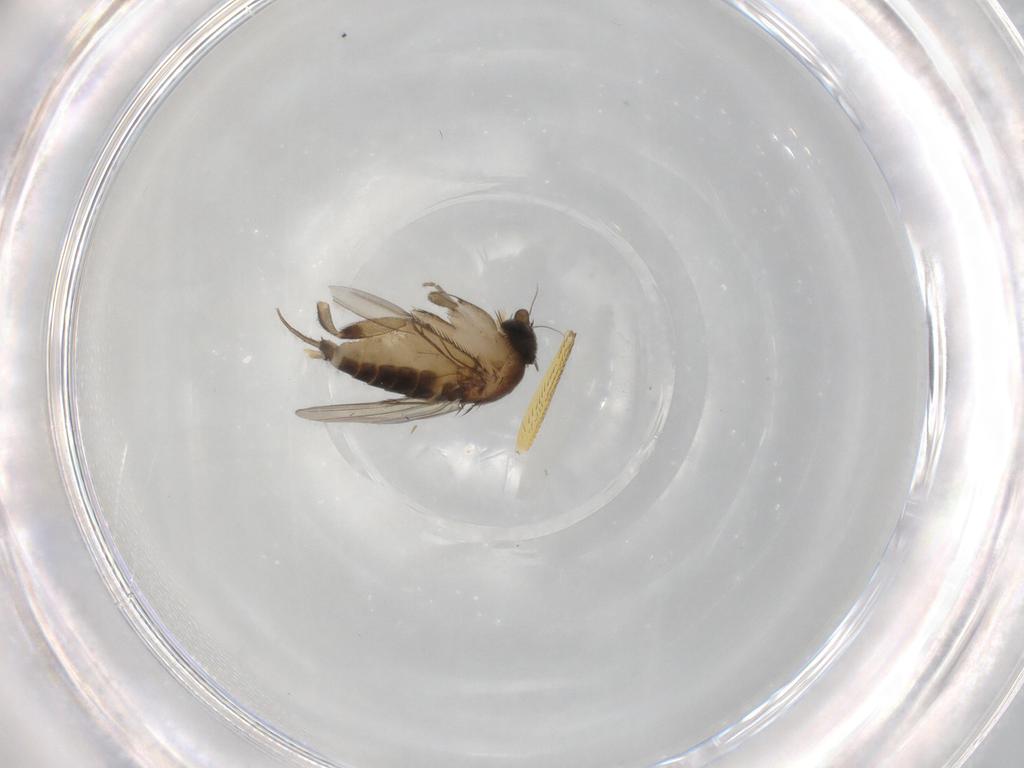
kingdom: Animalia
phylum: Arthropoda
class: Insecta
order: Diptera
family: Phoridae
